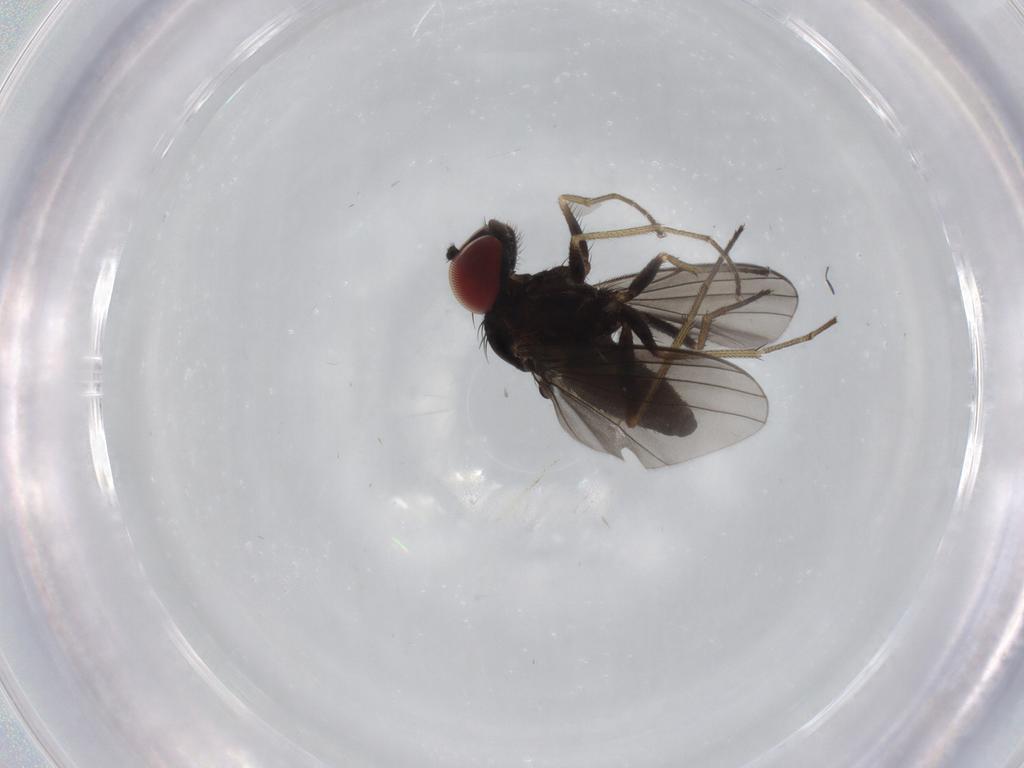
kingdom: Animalia
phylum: Arthropoda
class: Insecta
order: Diptera
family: Dolichopodidae
